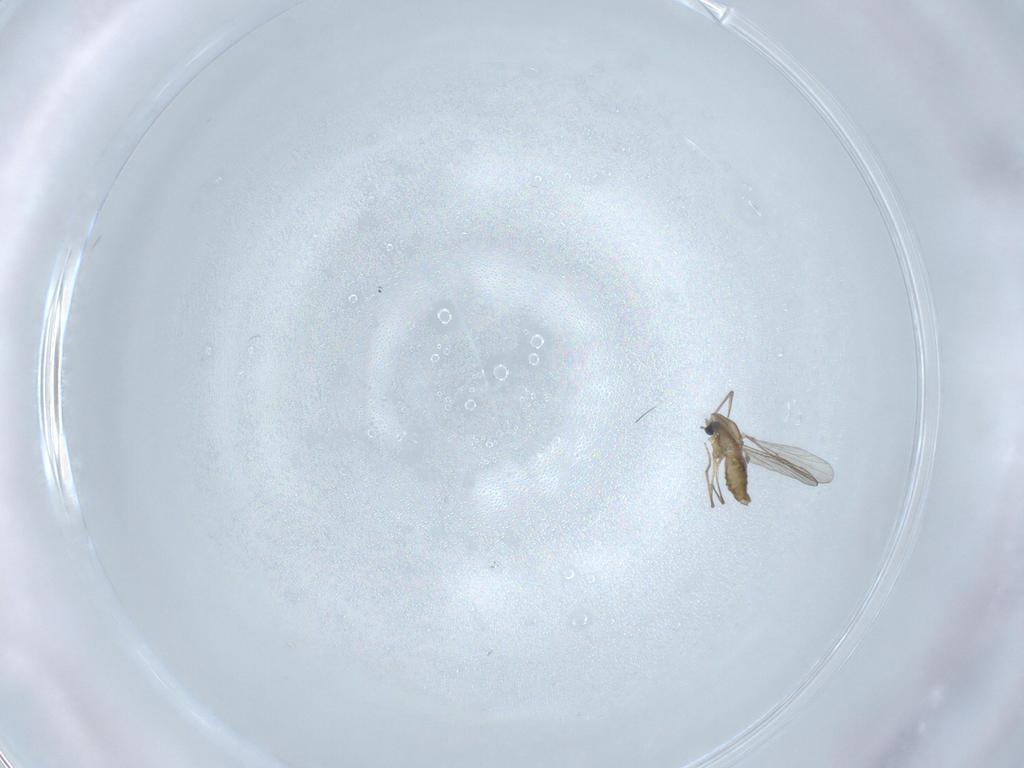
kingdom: Animalia
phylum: Arthropoda
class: Insecta
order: Diptera
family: Chironomidae
